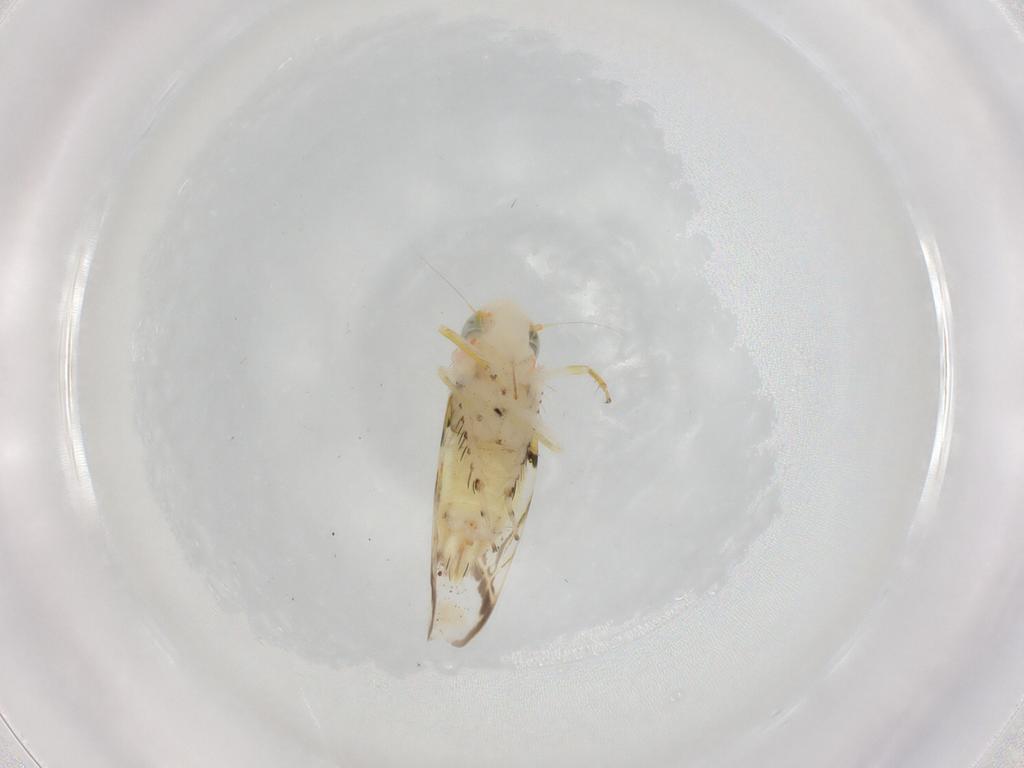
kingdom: Animalia
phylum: Arthropoda
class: Insecta
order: Hemiptera
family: Cicadellidae
